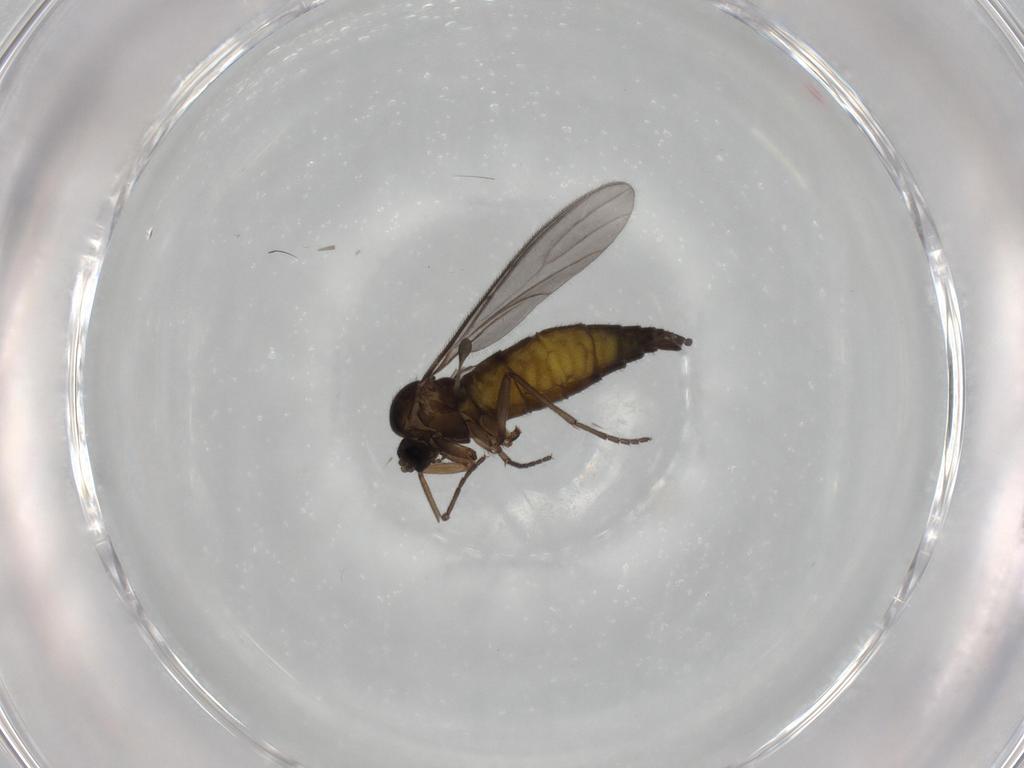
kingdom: Animalia
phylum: Arthropoda
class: Insecta
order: Diptera
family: Sciaridae
